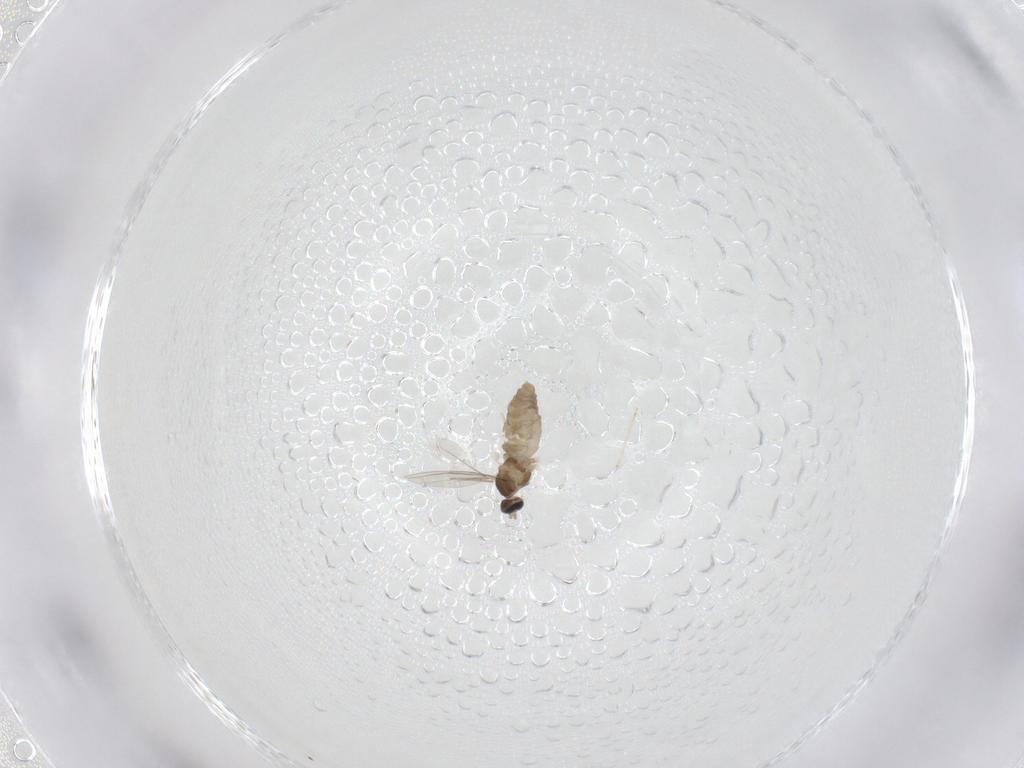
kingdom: Animalia
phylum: Arthropoda
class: Insecta
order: Diptera
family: Cecidomyiidae
